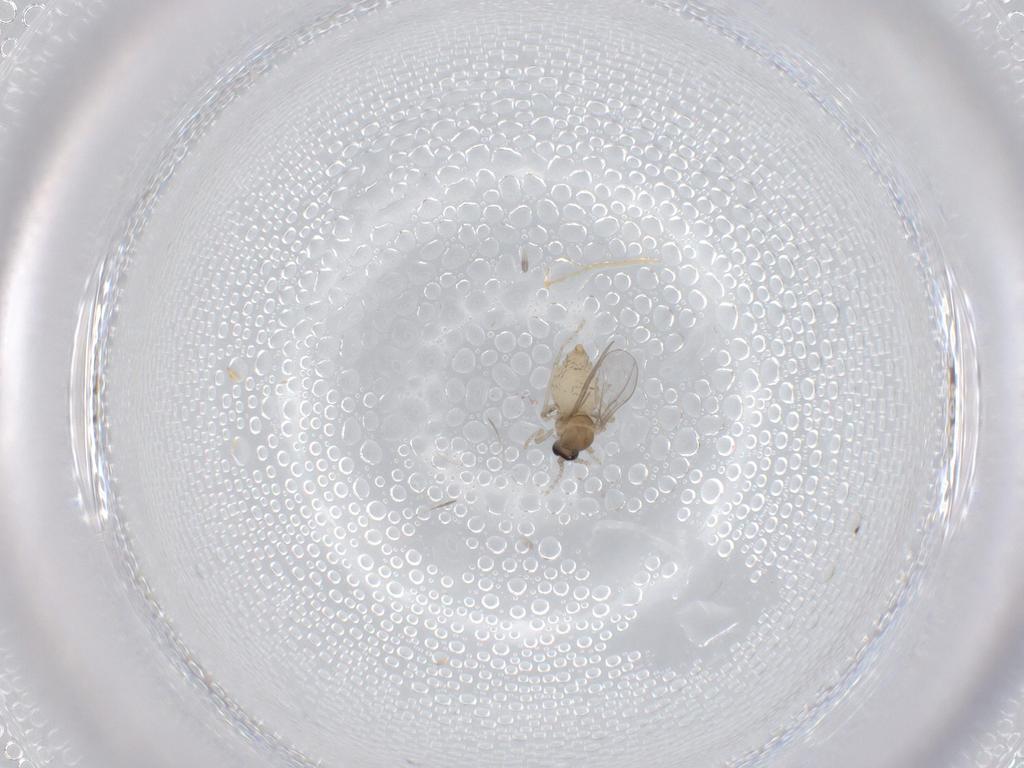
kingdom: Animalia
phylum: Arthropoda
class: Insecta
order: Diptera
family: Cecidomyiidae
